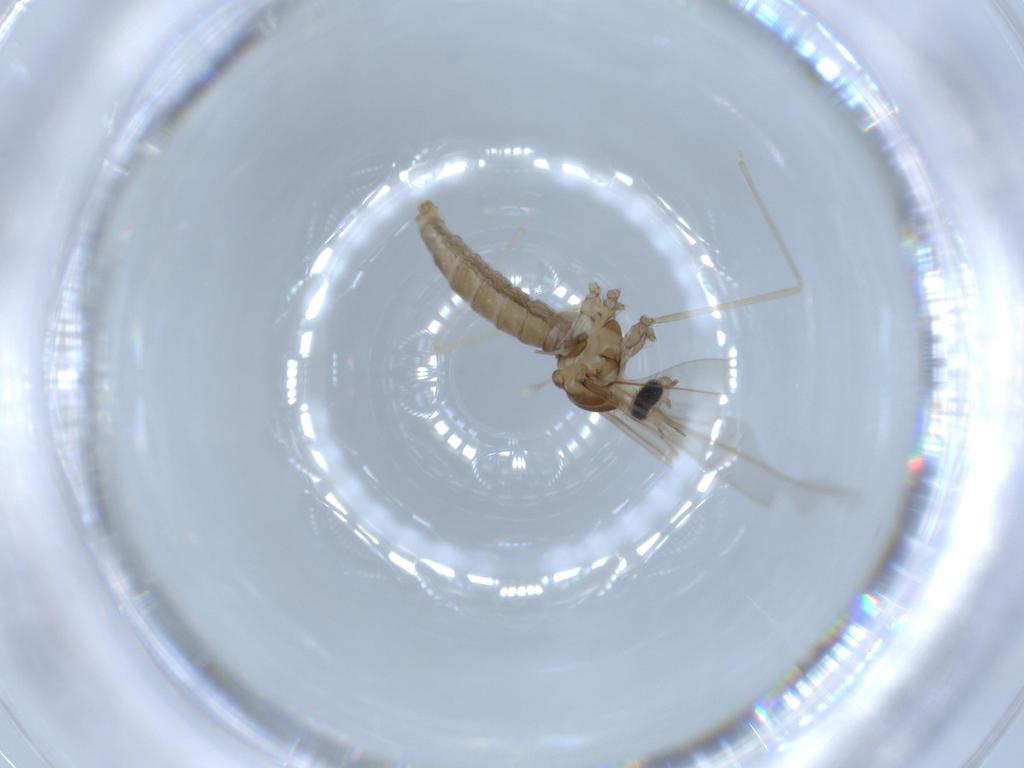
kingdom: Animalia
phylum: Arthropoda
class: Insecta
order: Diptera
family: Cecidomyiidae
